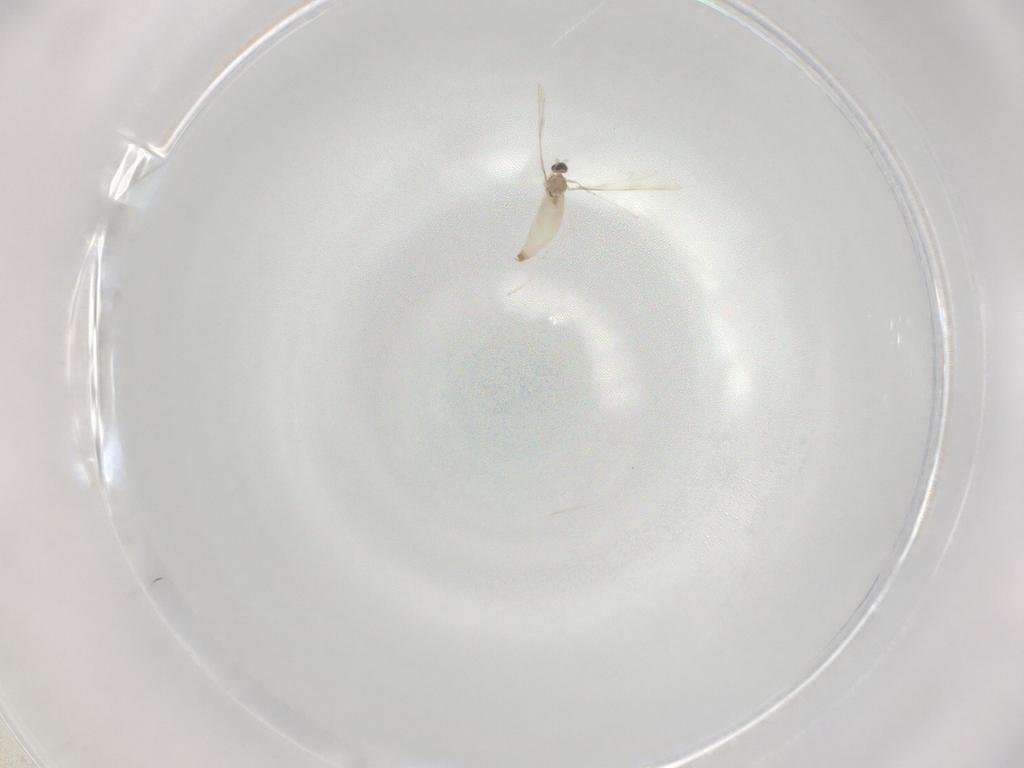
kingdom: Animalia
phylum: Arthropoda
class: Insecta
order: Diptera
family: Cecidomyiidae
